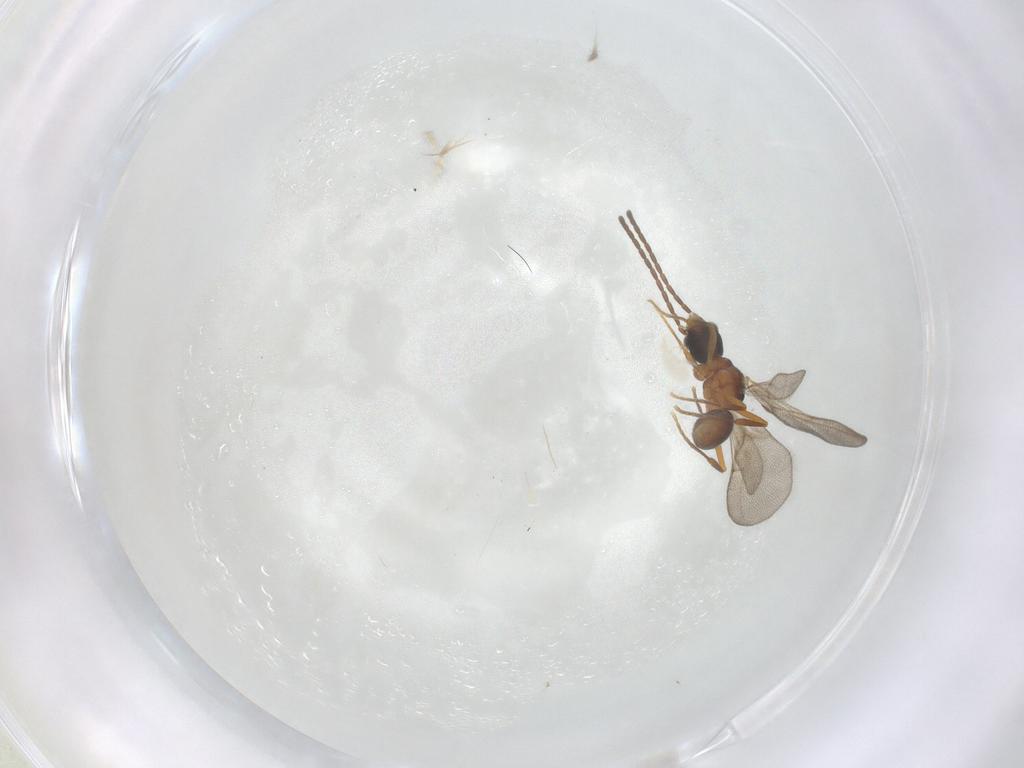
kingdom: Animalia
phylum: Arthropoda
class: Insecta
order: Hymenoptera
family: Formicidae
